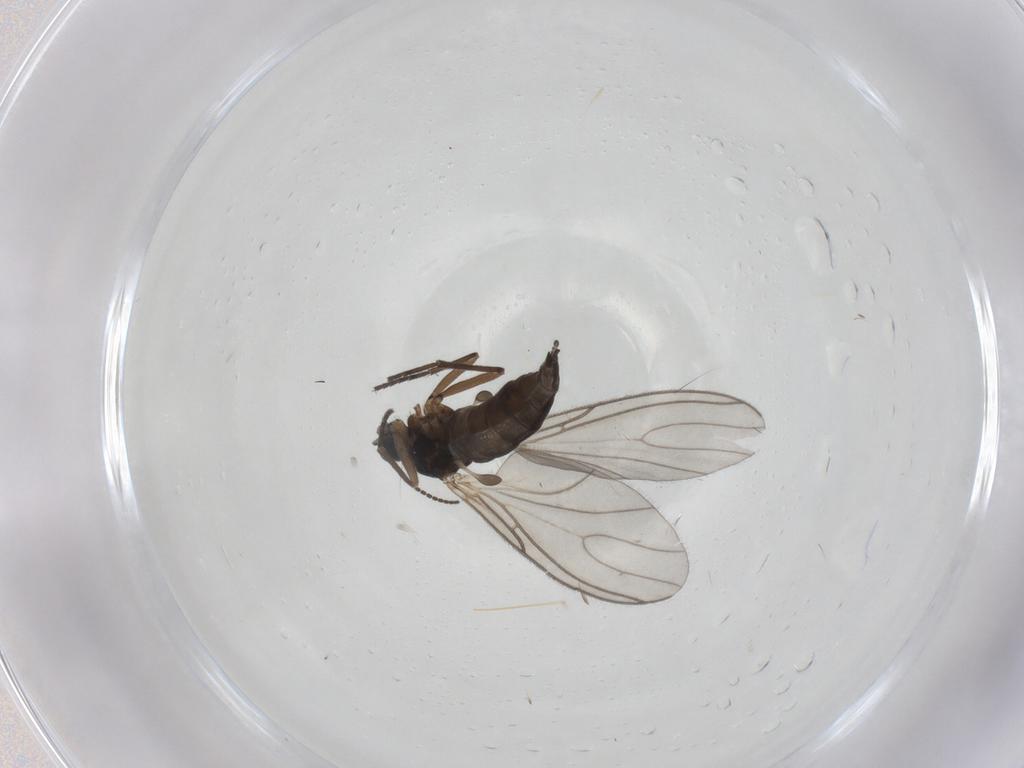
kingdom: Animalia
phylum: Arthropoda
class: Insecta
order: Diptera
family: Sciaridae
